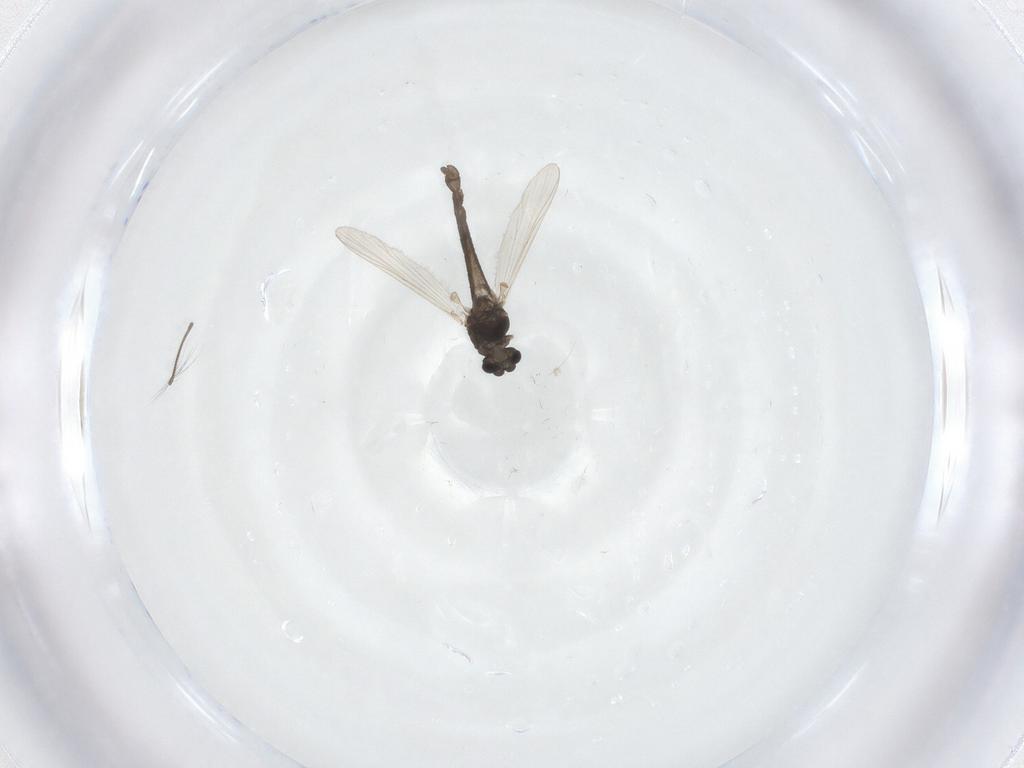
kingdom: Animalia
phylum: Arthropoda
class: Insecta
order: Diptera
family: Chironomidae
